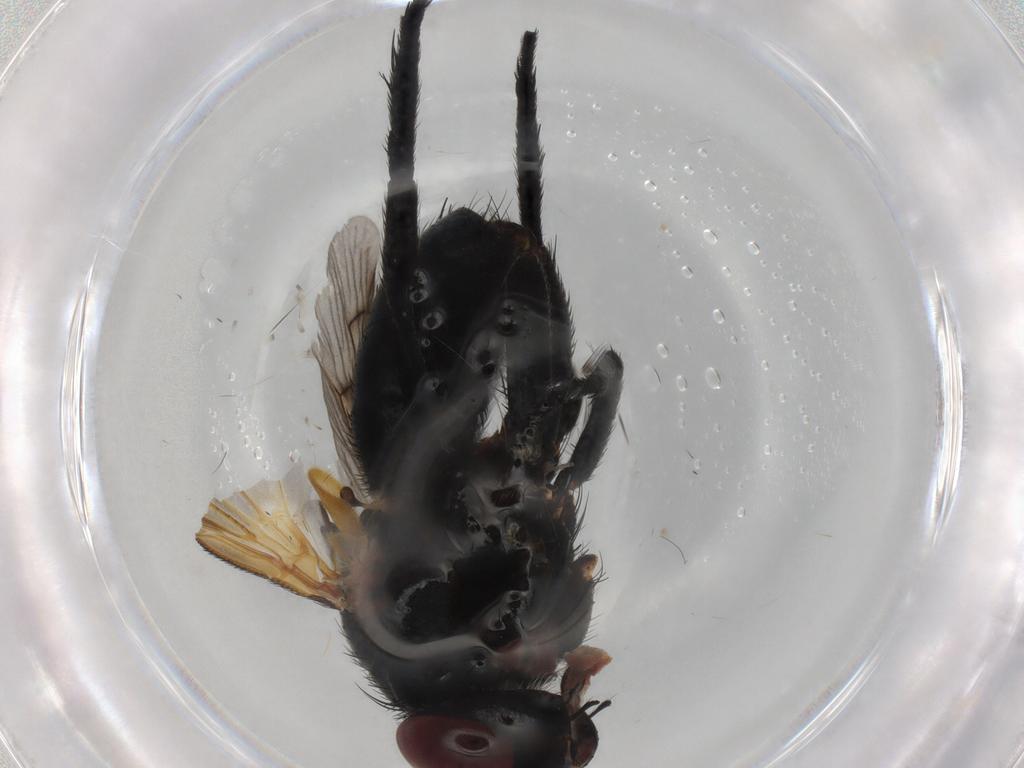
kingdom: Animalia
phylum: Arthropoda
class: Insecta
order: Diptera
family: Tachinidae
